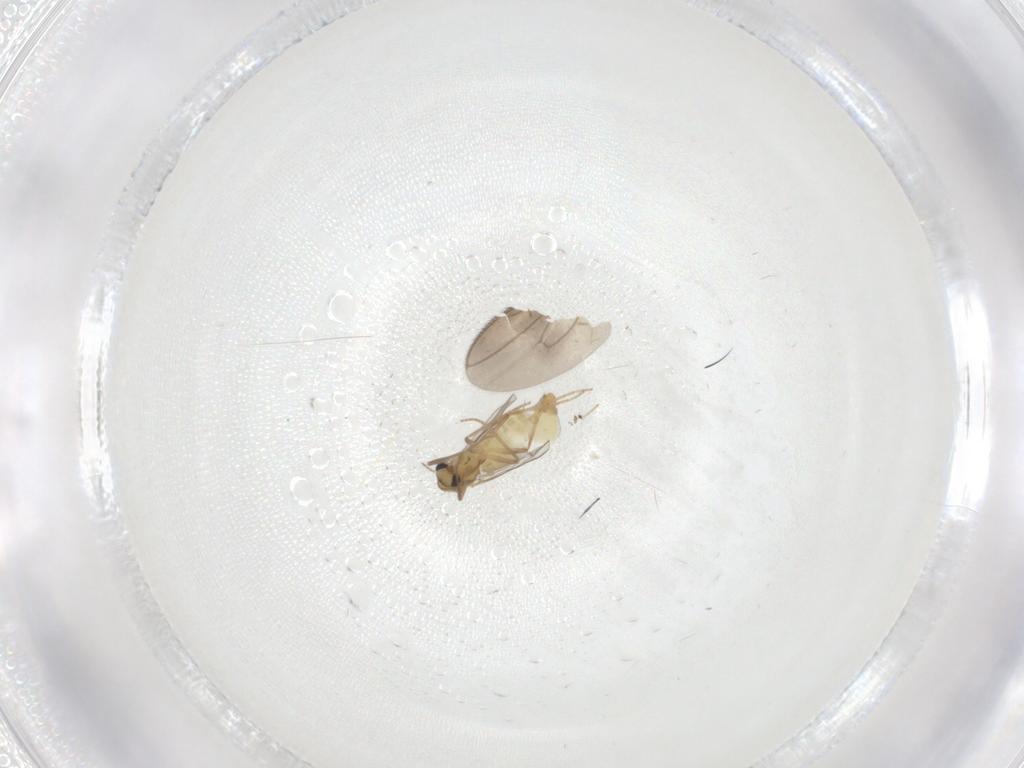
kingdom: Animalia
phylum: Arthropoda
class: Insecta
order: Diptera
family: Chironomidae
